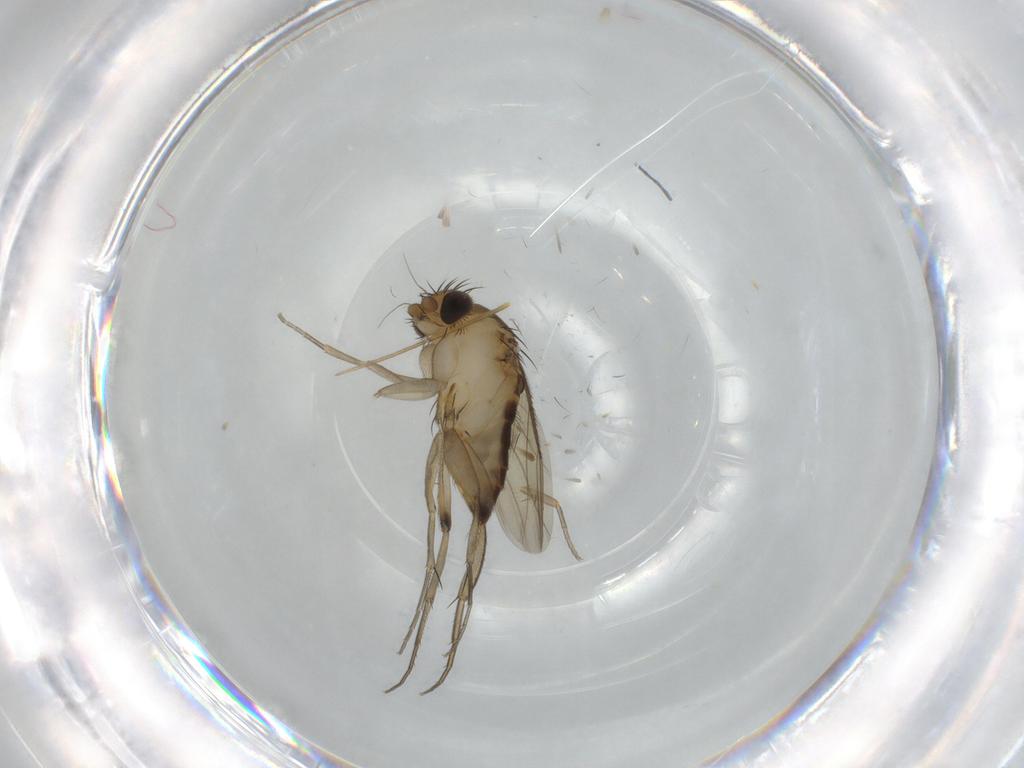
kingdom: Animalia
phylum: Arthropoda
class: Insecta
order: Diptera
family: Phoridae
